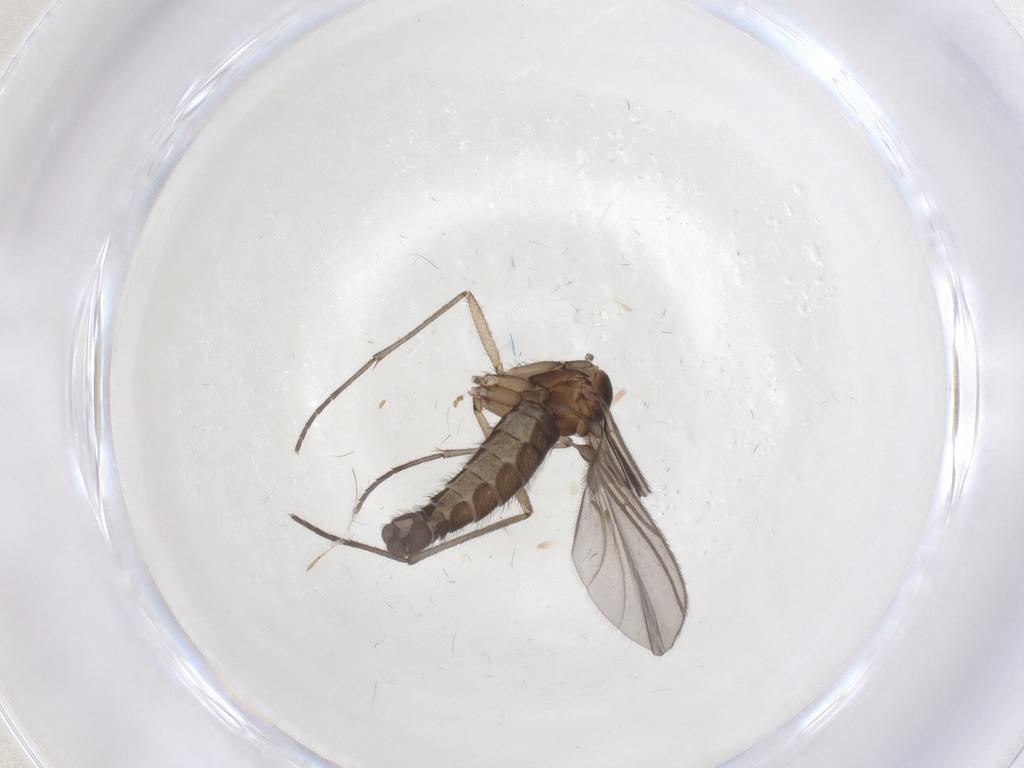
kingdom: Animalia
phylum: Arthropoda
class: Insecta
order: Diptera
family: Sciaridae
